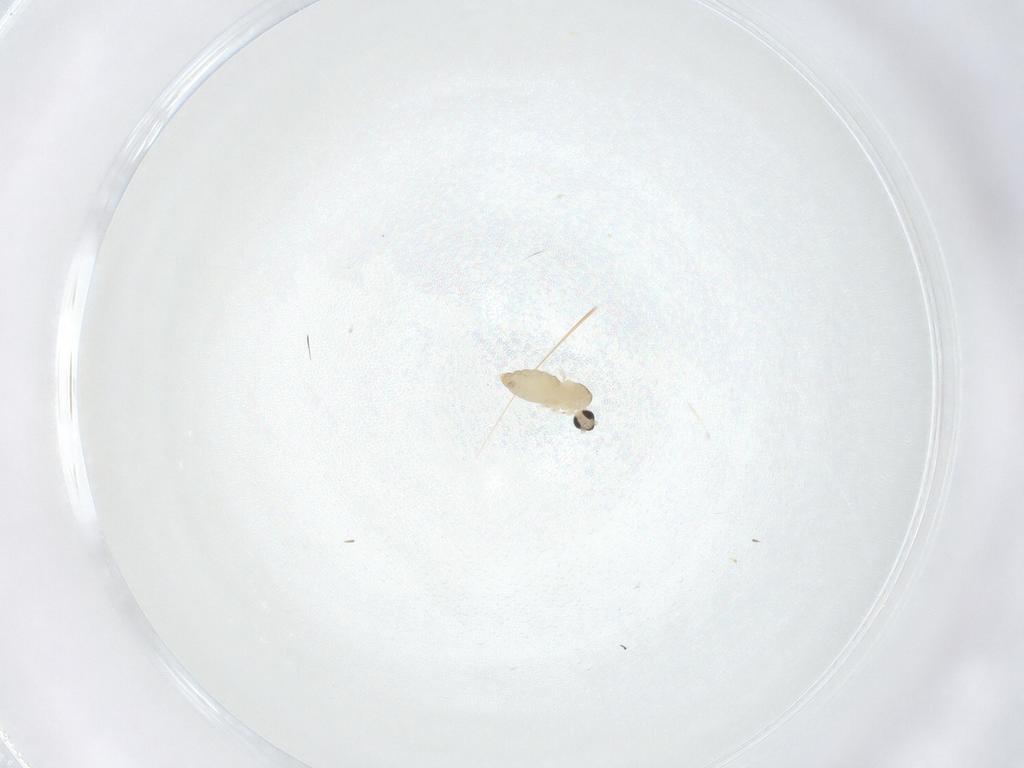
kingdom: Animalia
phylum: Arthropoda
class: Insecta
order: Diptera
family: Cecidomyiidae
